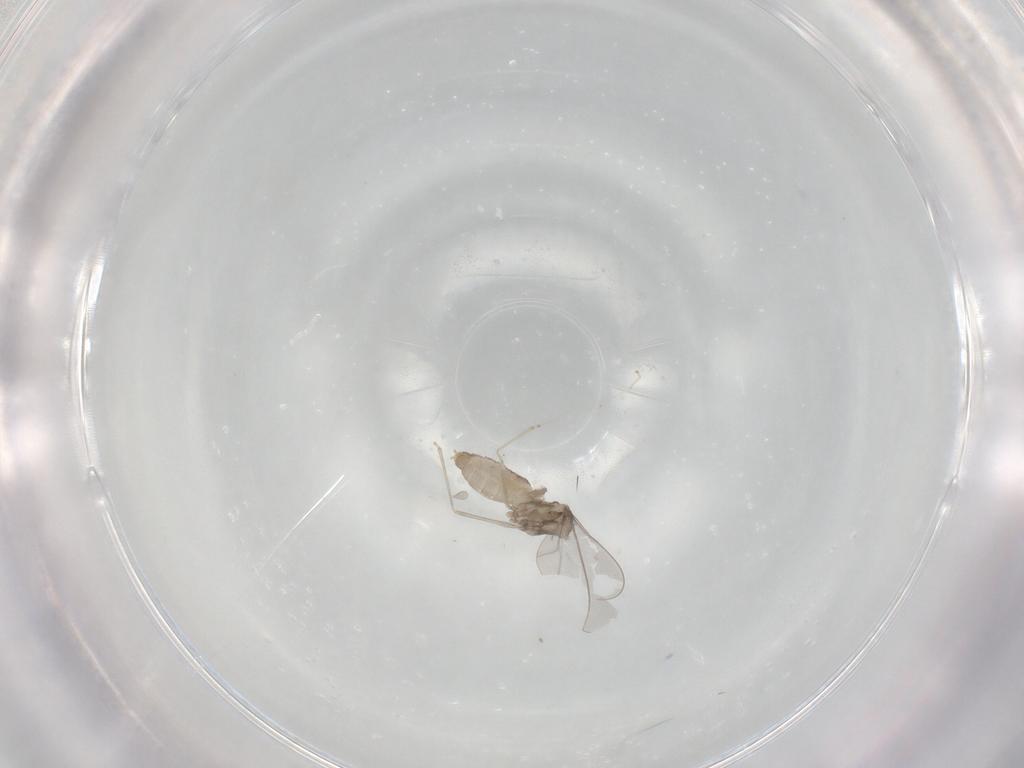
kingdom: Animalia
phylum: Arthropoda
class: Insecta
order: Diptera
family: Cecidomyiidae
